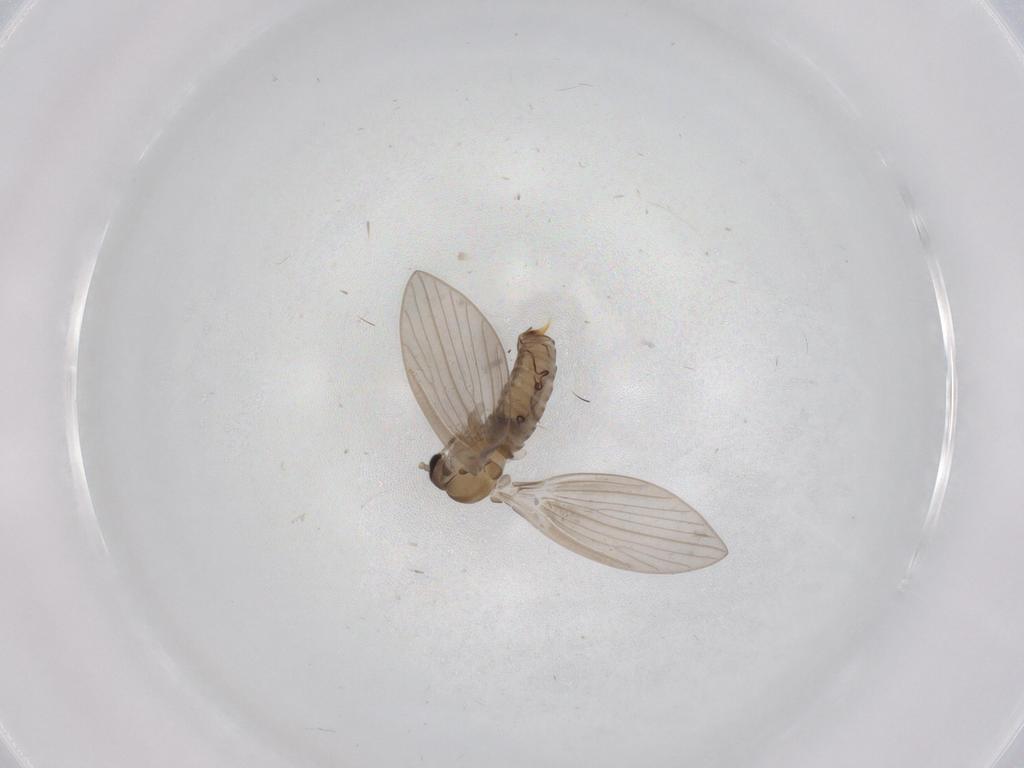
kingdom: Animalia
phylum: Arthropoda
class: Insecta
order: Diptera
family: Psychodidae
